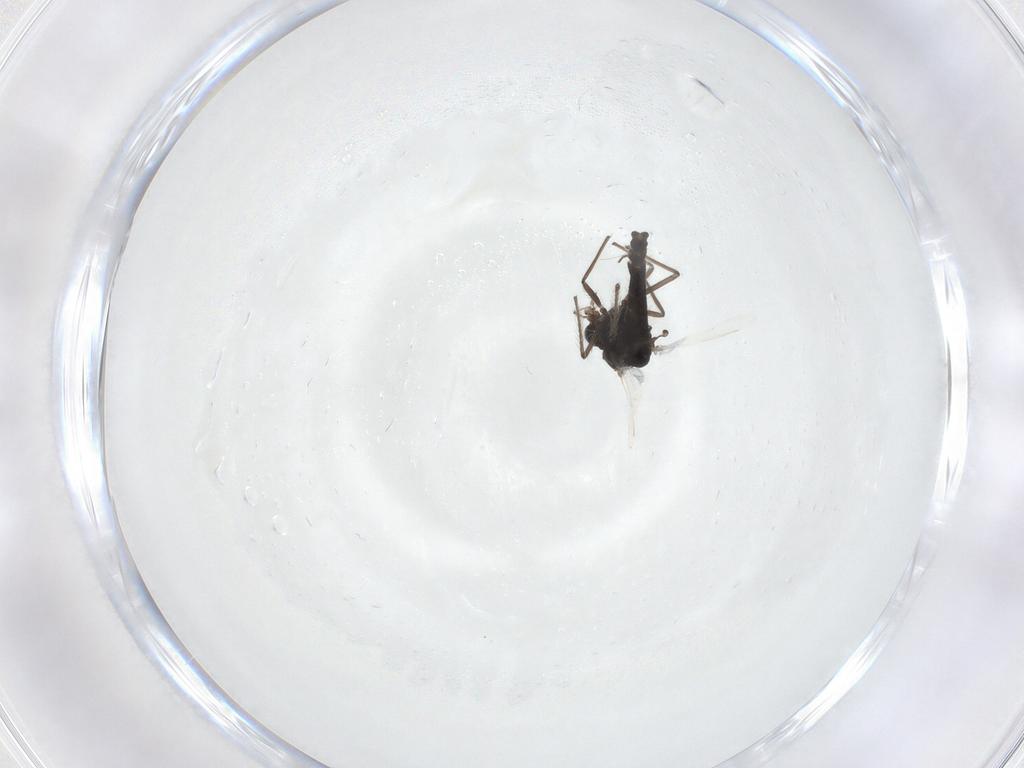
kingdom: Animalia
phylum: Arthropoda
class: Insecta
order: Diptera
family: Chironomidae
